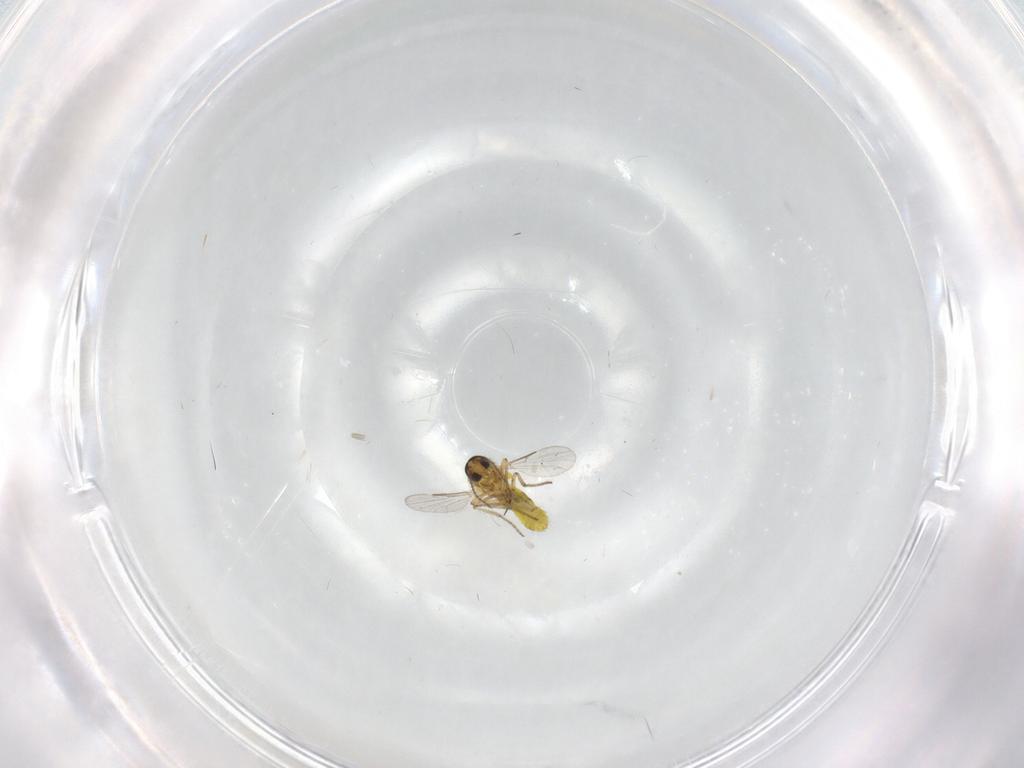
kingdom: Animalia
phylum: Arthropoda
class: Insecta
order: Diptera
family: Ceratopogonidae
